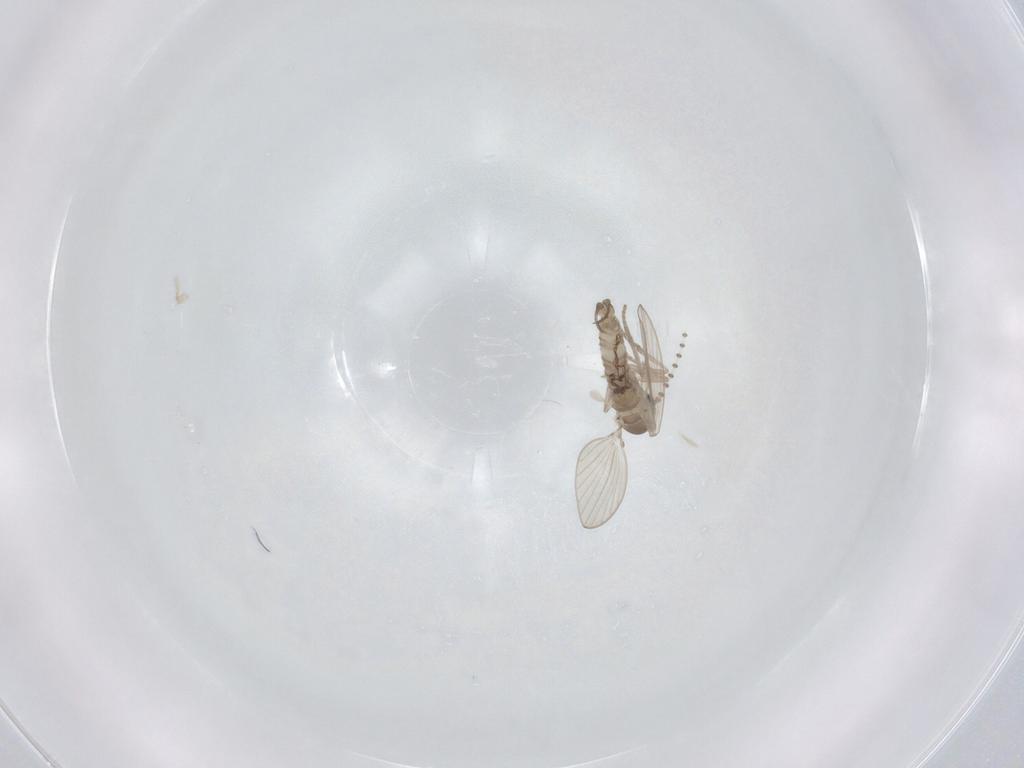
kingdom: Animalia
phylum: Arthropoda
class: Insecta
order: Diptera
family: Psychodidae
